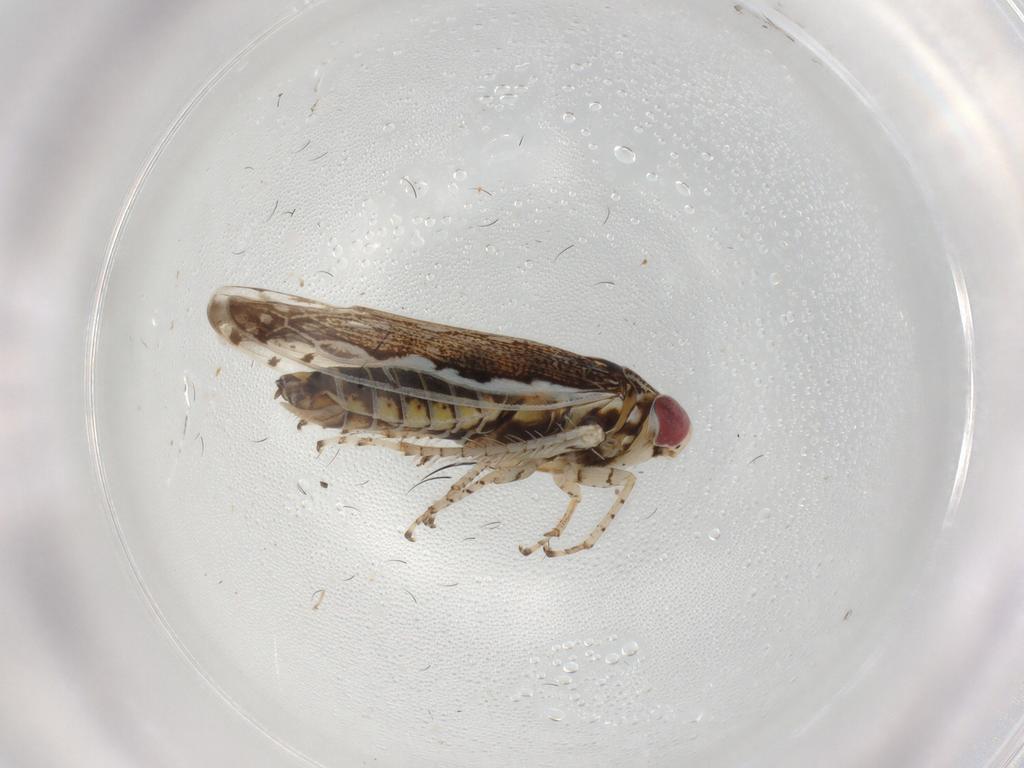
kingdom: Animalia
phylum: Arthropoda
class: Insecta
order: Hemiptera
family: Cicadellidae
